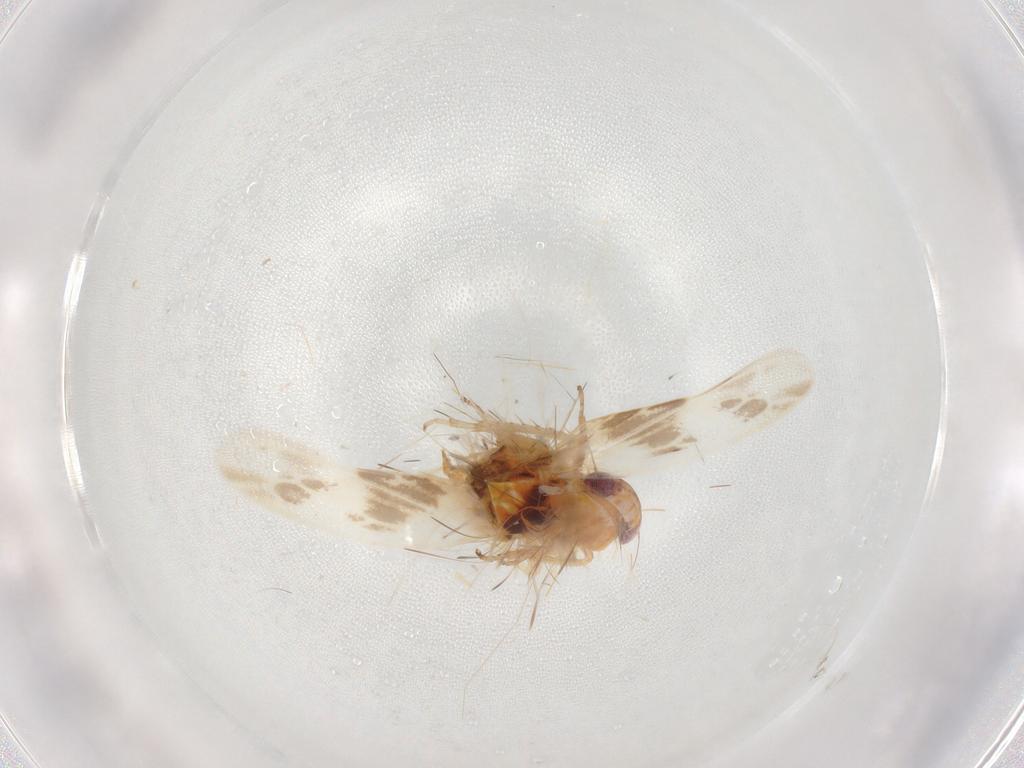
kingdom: Animalia
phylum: Arthropoda
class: Insecta
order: Hemiptera
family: Cicadellidae
